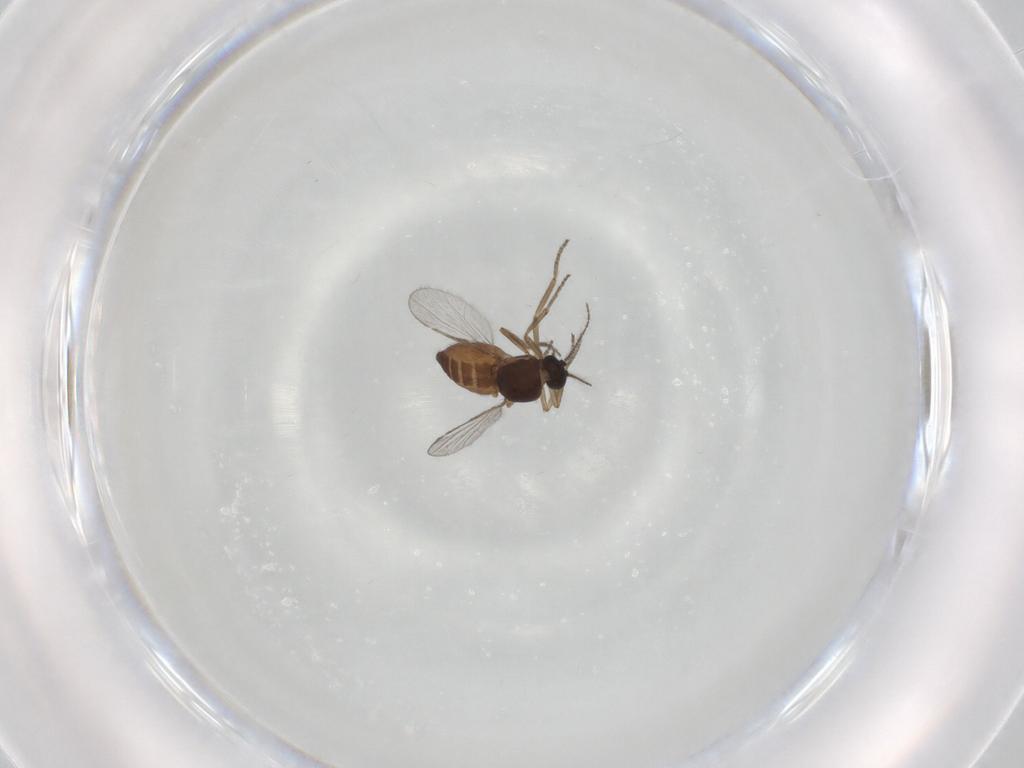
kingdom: Animalia
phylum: Arthropoda
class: Insecta
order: Diptera
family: Ceratopogonidae
